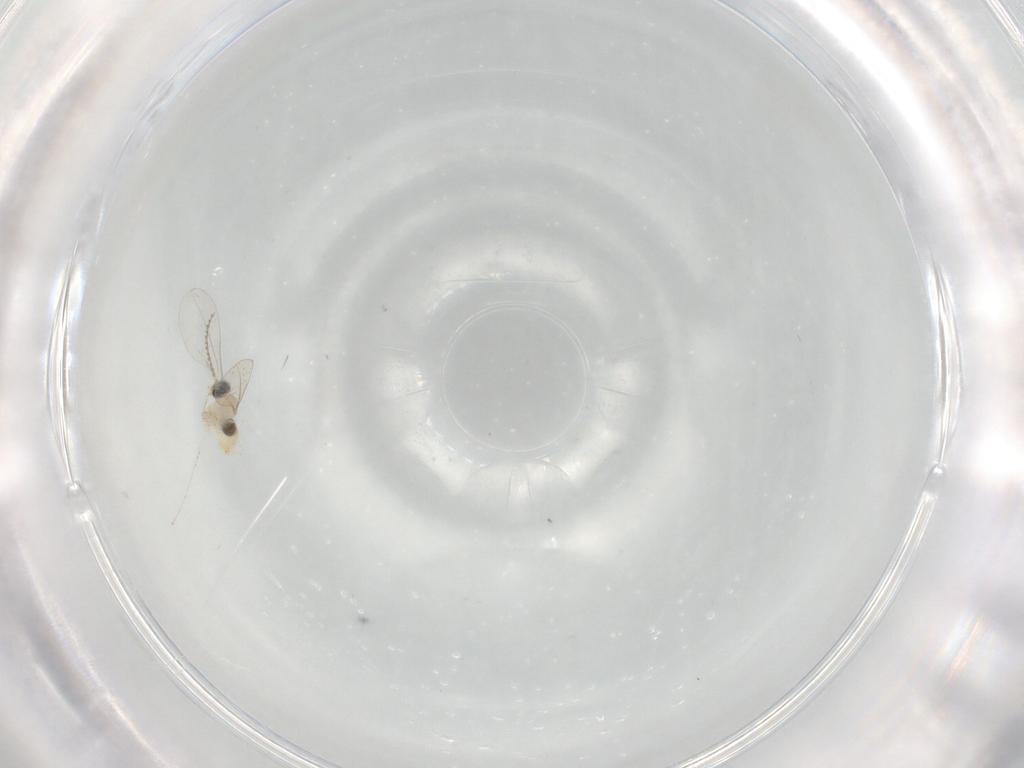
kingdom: Animalia
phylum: Arthropoda
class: Insecta
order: Diptera
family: Cecidomyiidae
